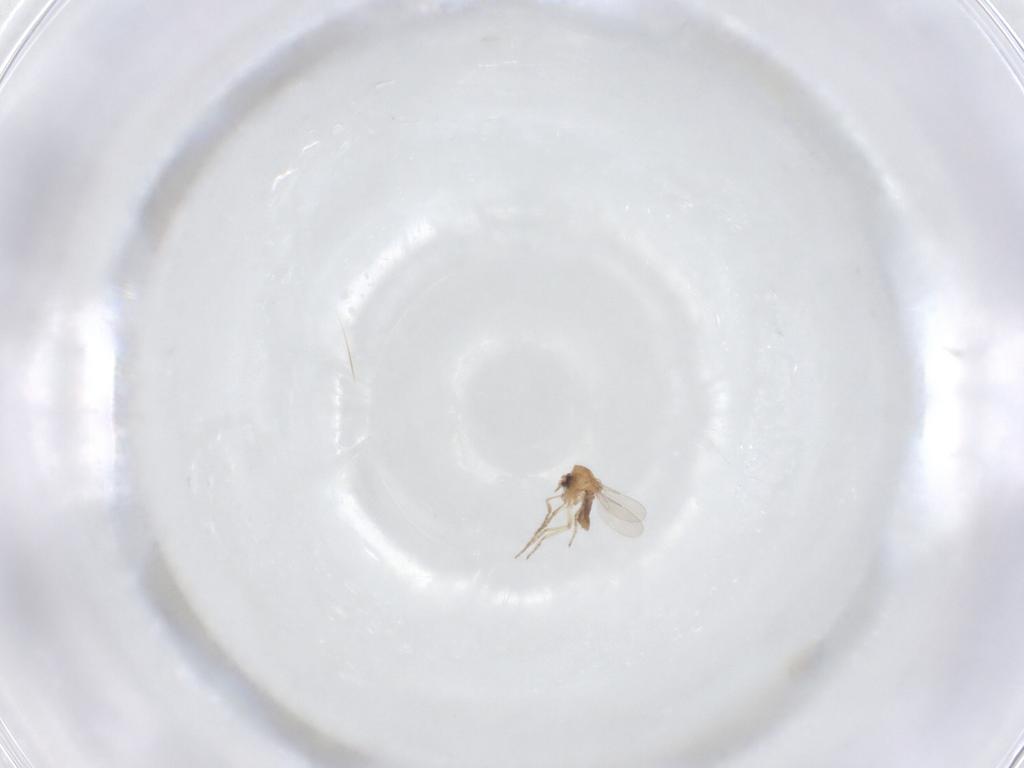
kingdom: Animalia
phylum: Arthropoda
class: Insecta
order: Diptera
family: Ceratopogonidae
